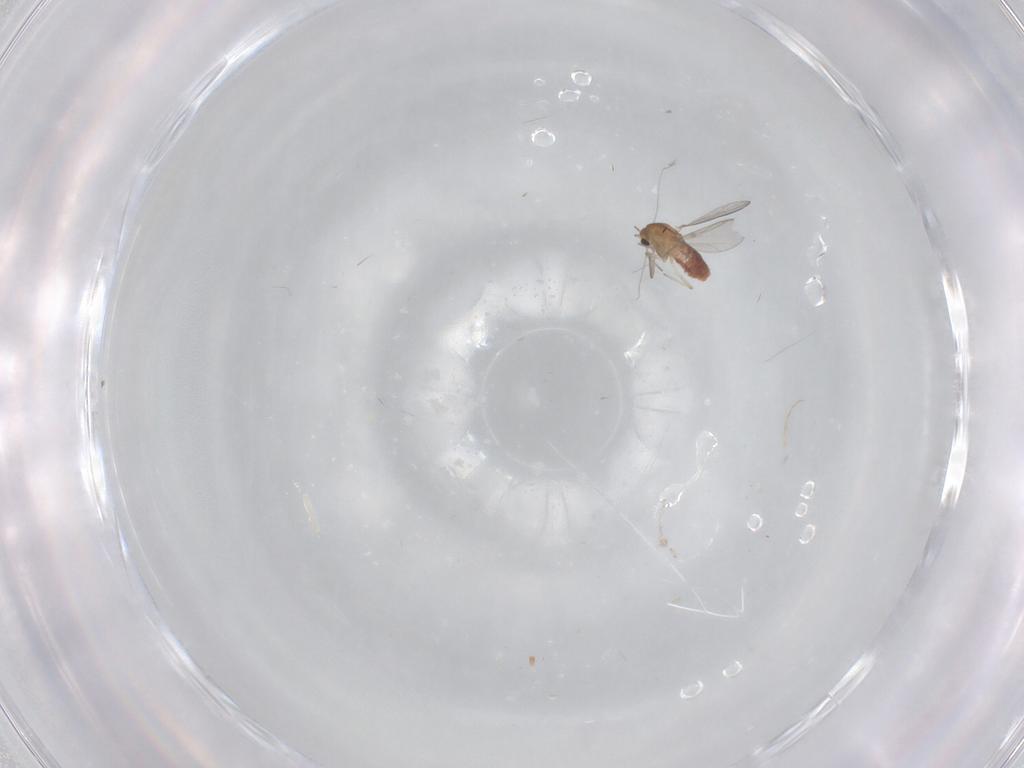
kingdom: Animalia
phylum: Arthropoda
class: Insecta
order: Diptera
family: Chironomidae
